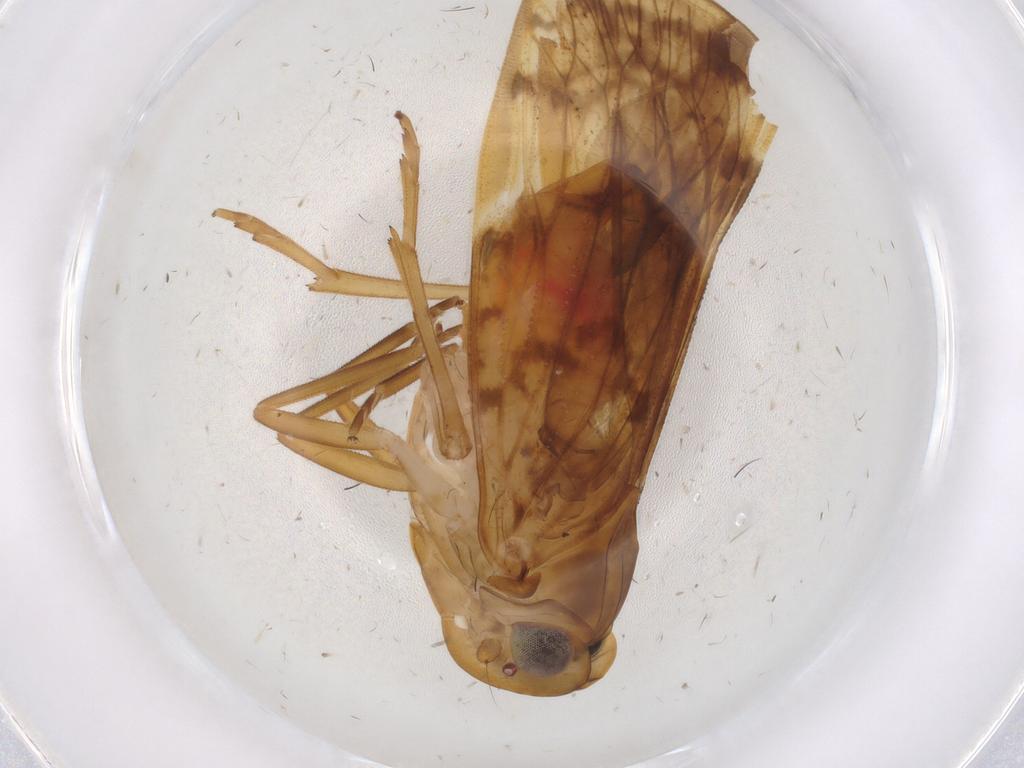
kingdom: Animalia
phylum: Arthropoda
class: Insecta
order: Hemiptera
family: Cixiidae
